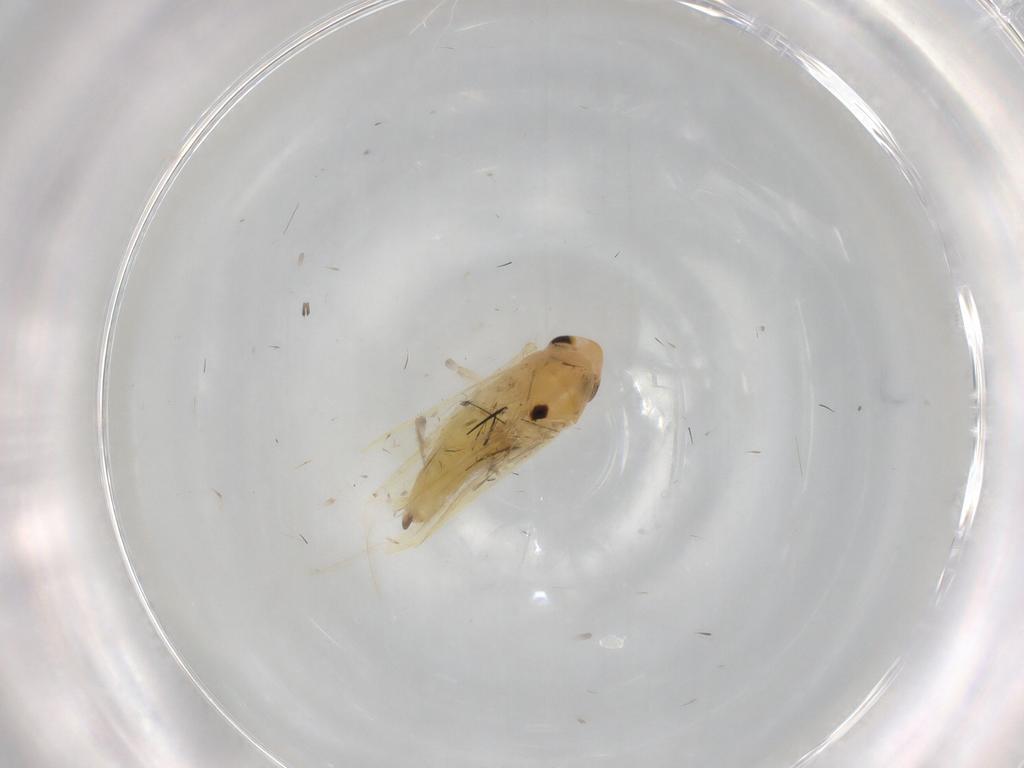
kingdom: Animalia
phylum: Arthropoda
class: Insecta
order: Hemiptera
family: Cicadellidae
